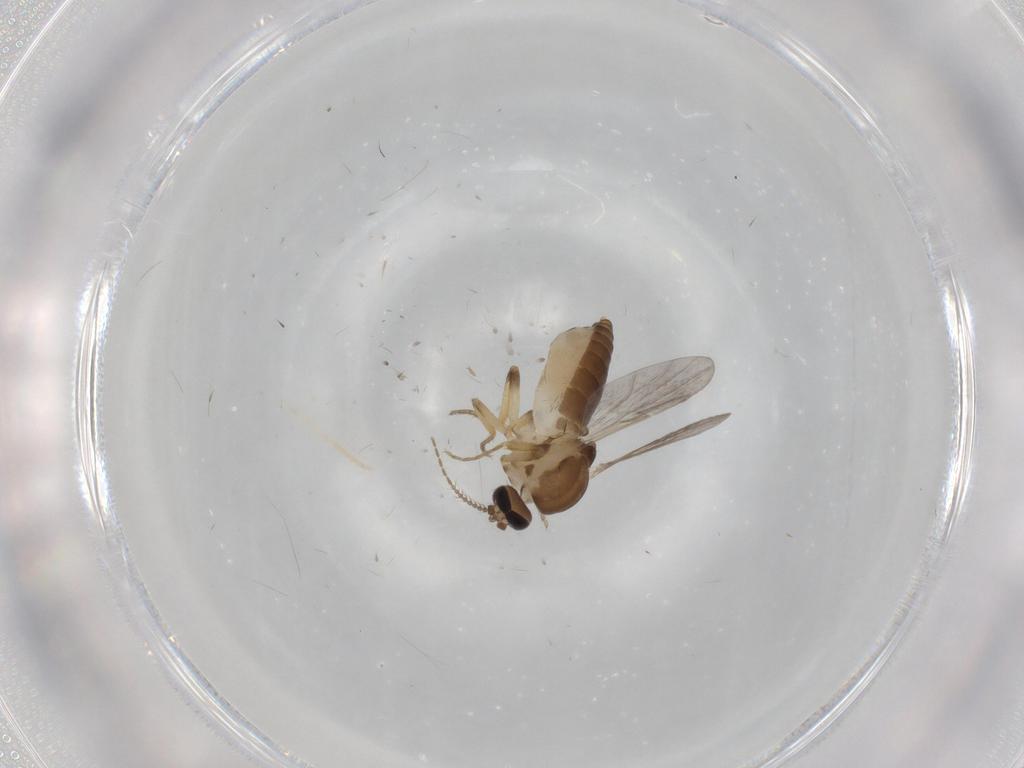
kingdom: Animalia
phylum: Arthropoda
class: Insecta
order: Diptera
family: Ceratopogonidae
